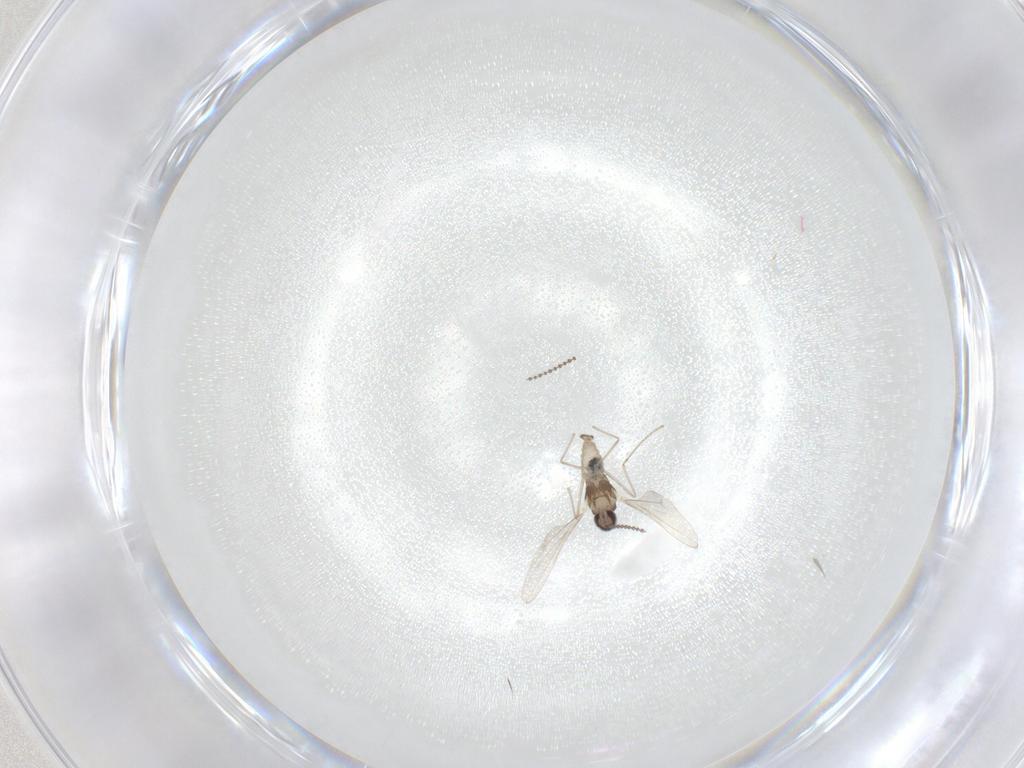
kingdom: Animalia
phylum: Arthropoda
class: Insecta
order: Diptera
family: Cecidomyiidae
